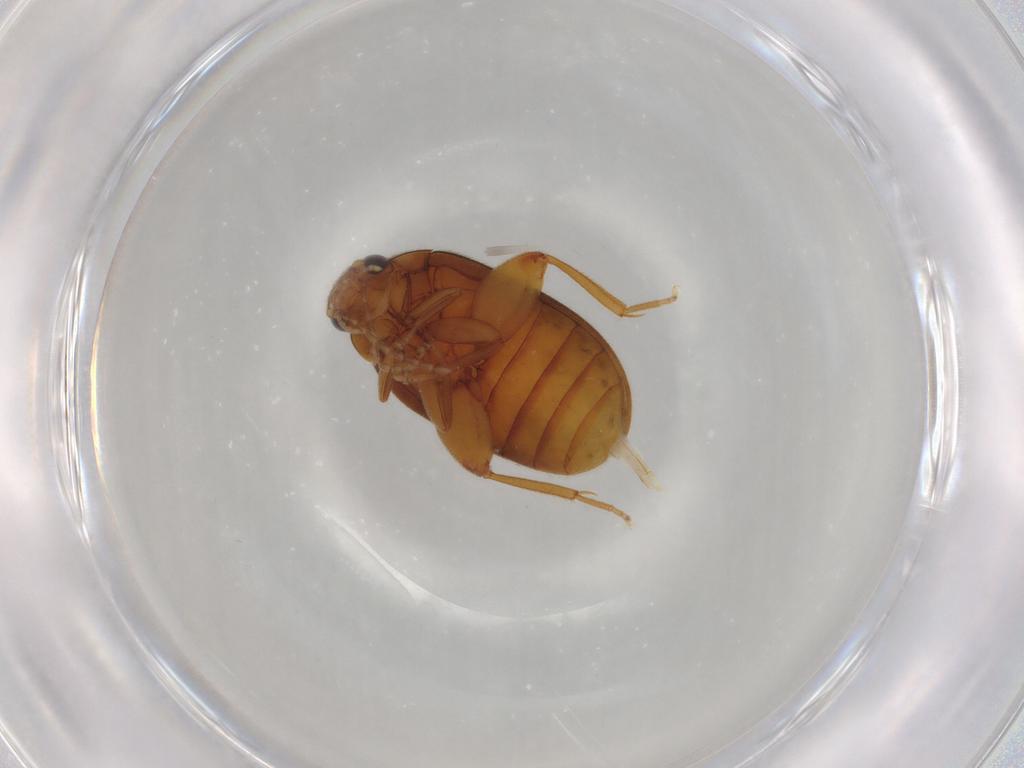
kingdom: Animalia
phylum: Arthropoda
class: Insecta
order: Coleoptera
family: Scirtidae
